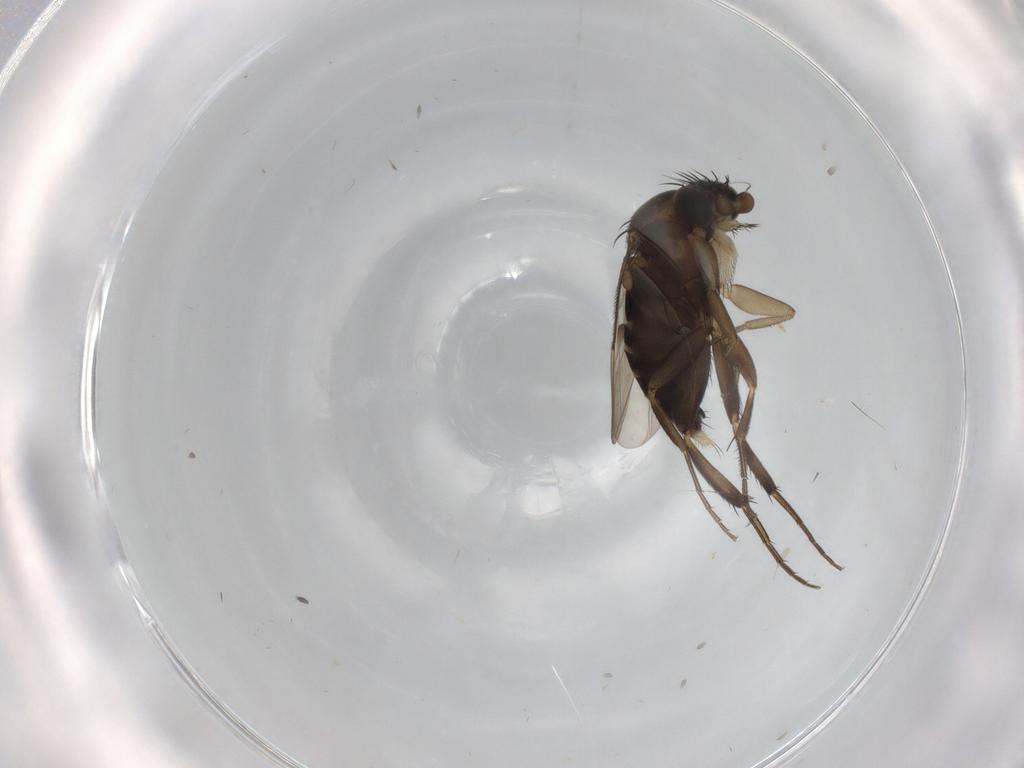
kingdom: Animalia
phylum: Arthropoda
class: Insecta
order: Diptera
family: Phoridae
